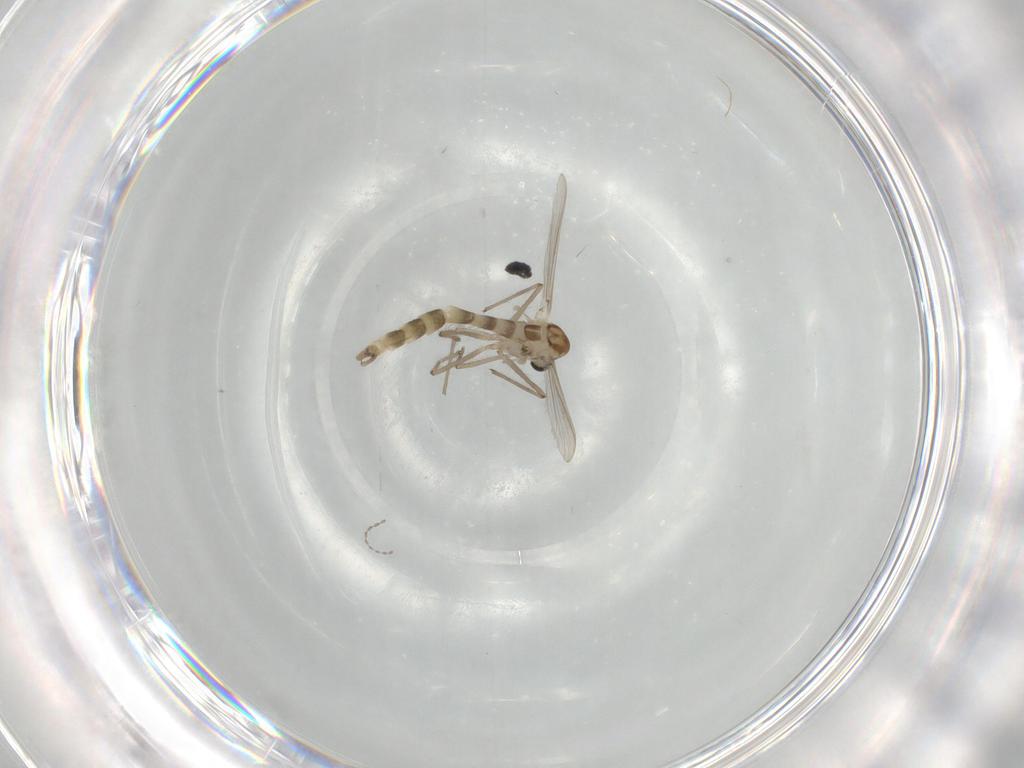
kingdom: Animalia
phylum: Arthropoda
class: Insecta
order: Diptera
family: Chironomidae
